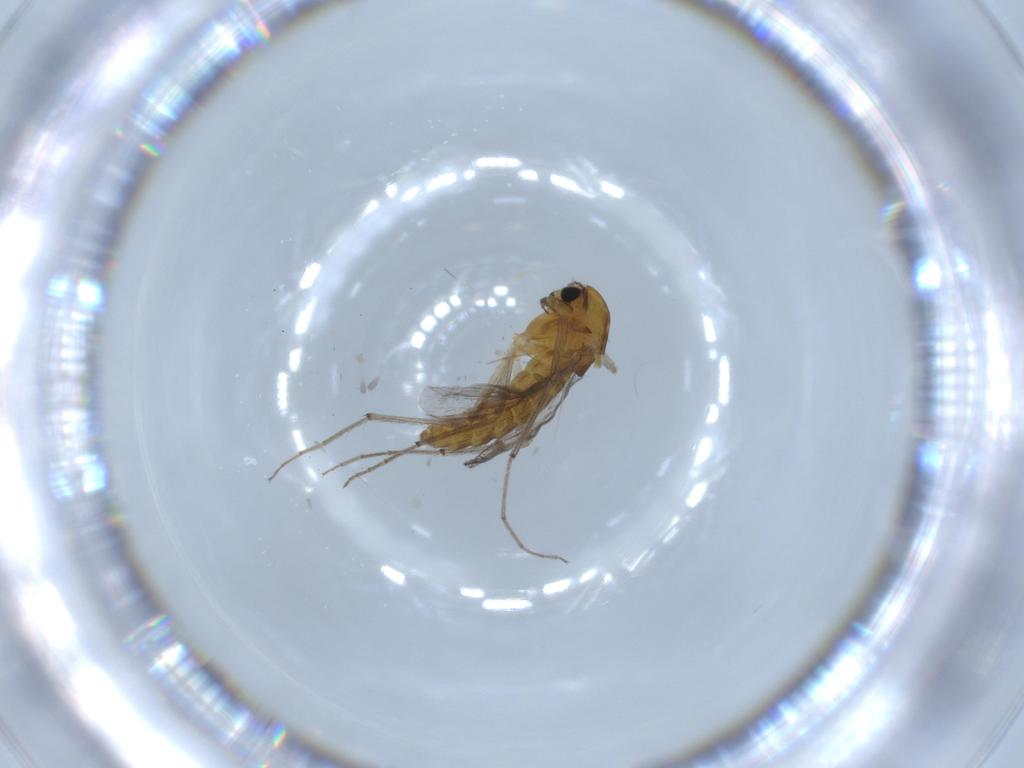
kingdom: Animalia
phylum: Arthropoda
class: Insecta
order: Diptera
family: Chironomidae
